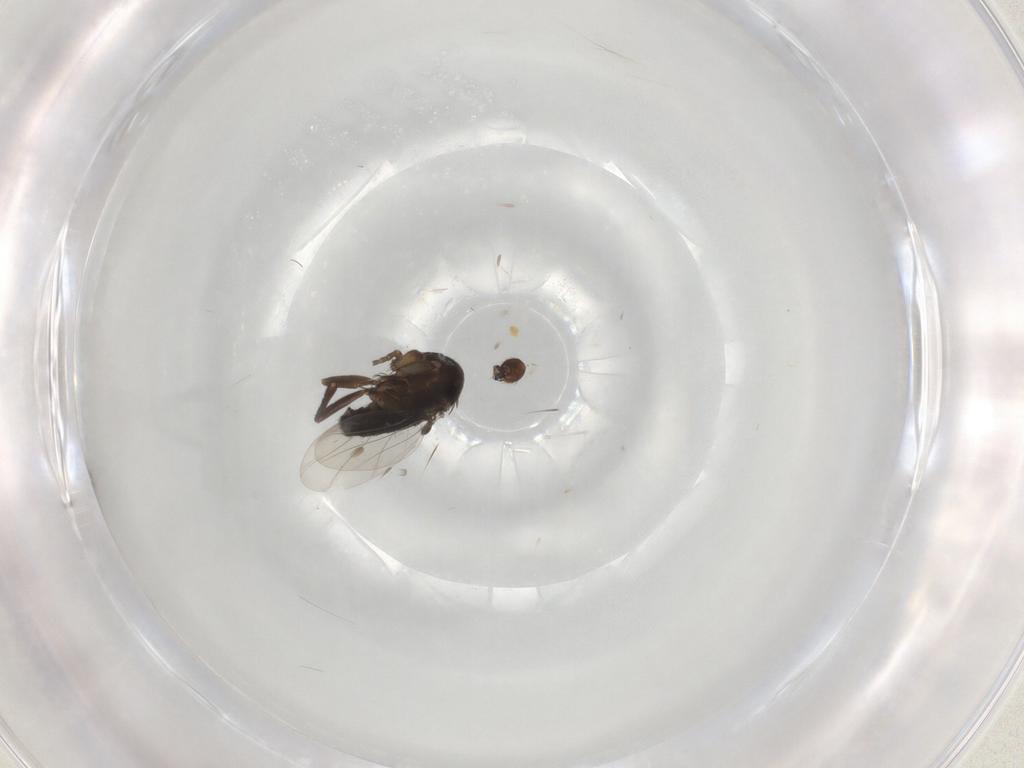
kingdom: Animalia
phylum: Arthropoda
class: Insecta
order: Diptera
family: Phoridae
